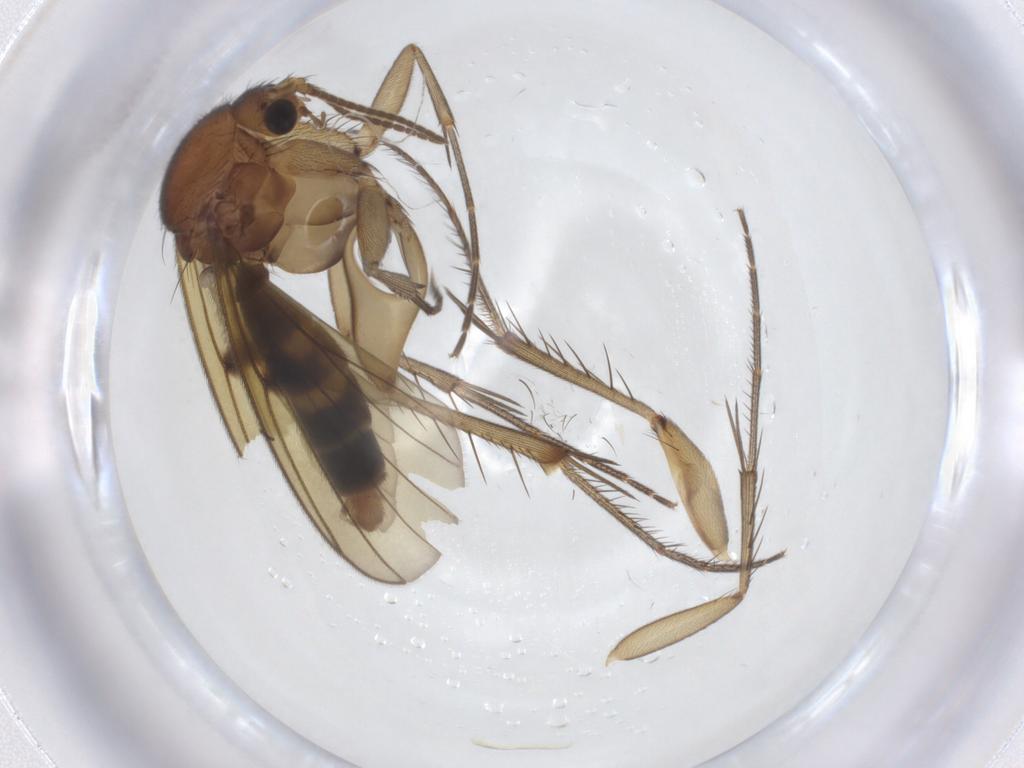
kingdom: Animalia
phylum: Arthropoda
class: Insecta
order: Diptera
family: Mycetophilidae
